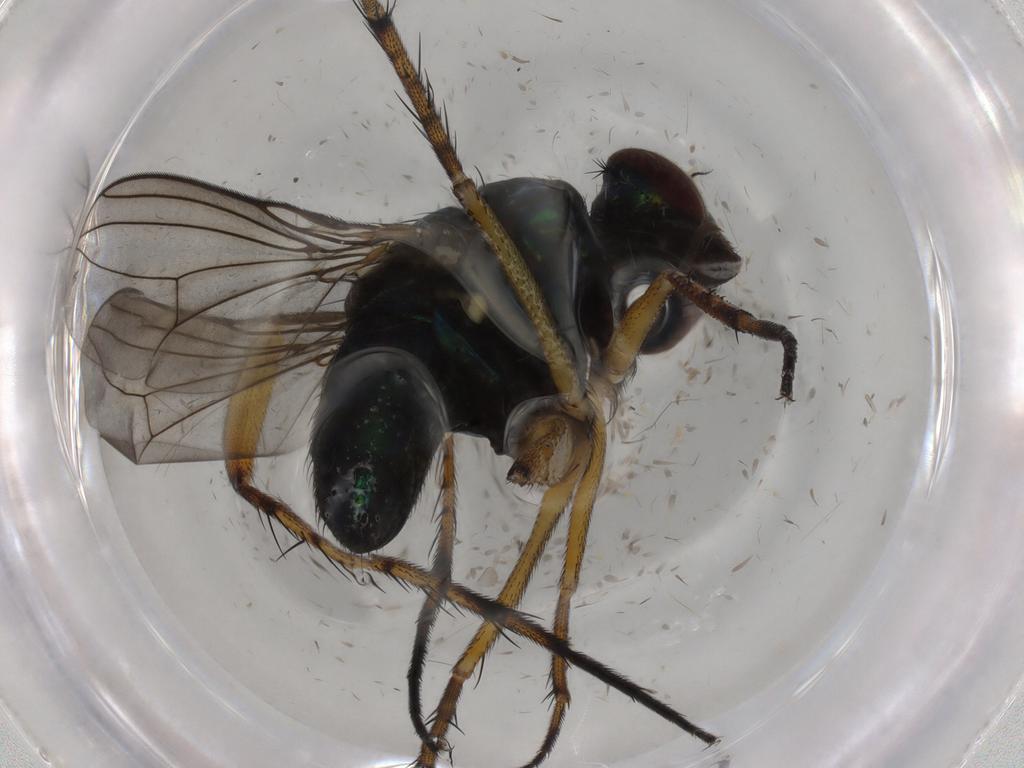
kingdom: Animalia
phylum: Arthropoda
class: Insecta
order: Diptera
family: Dolichopodidae
